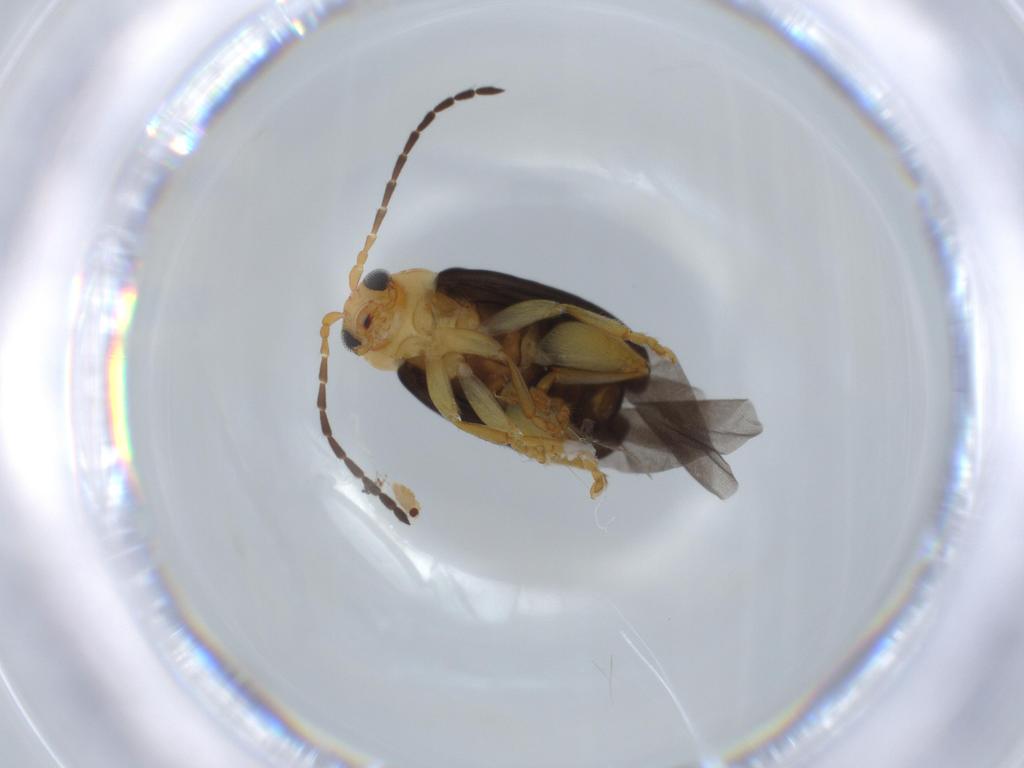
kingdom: Animalia
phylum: Arthropoda
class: Insecta
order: Coleoptera
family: Chrysomelidae
